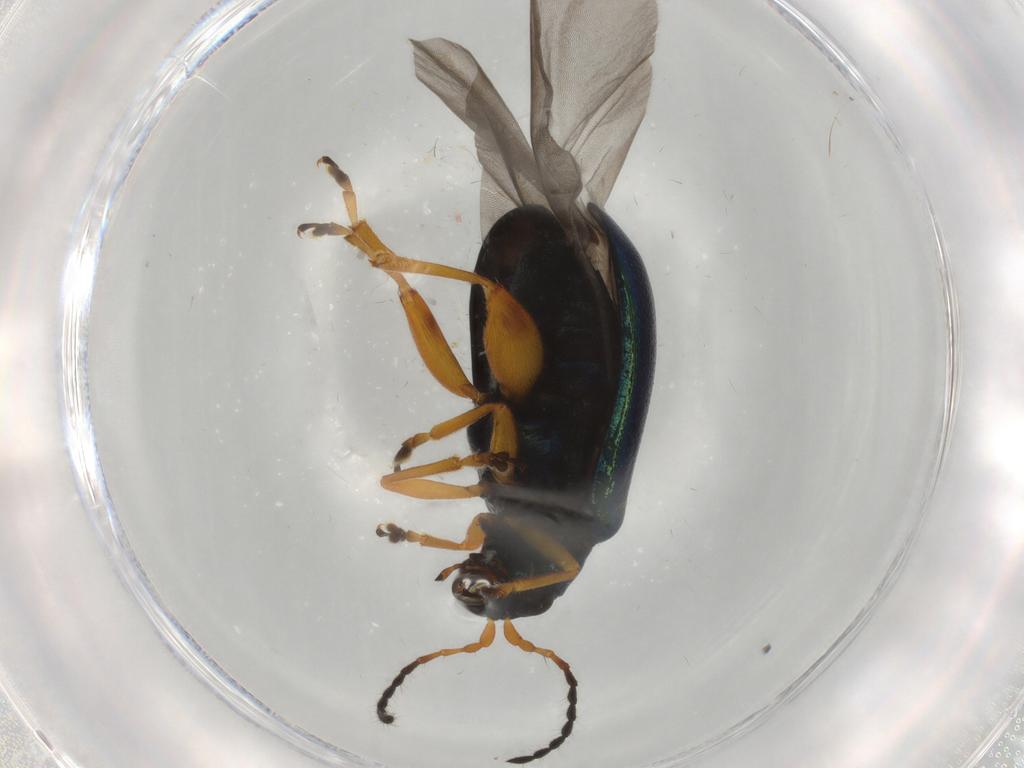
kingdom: Animalia
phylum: Arthropoda
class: Insecta
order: Coleoptera
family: Chrysomelidae
